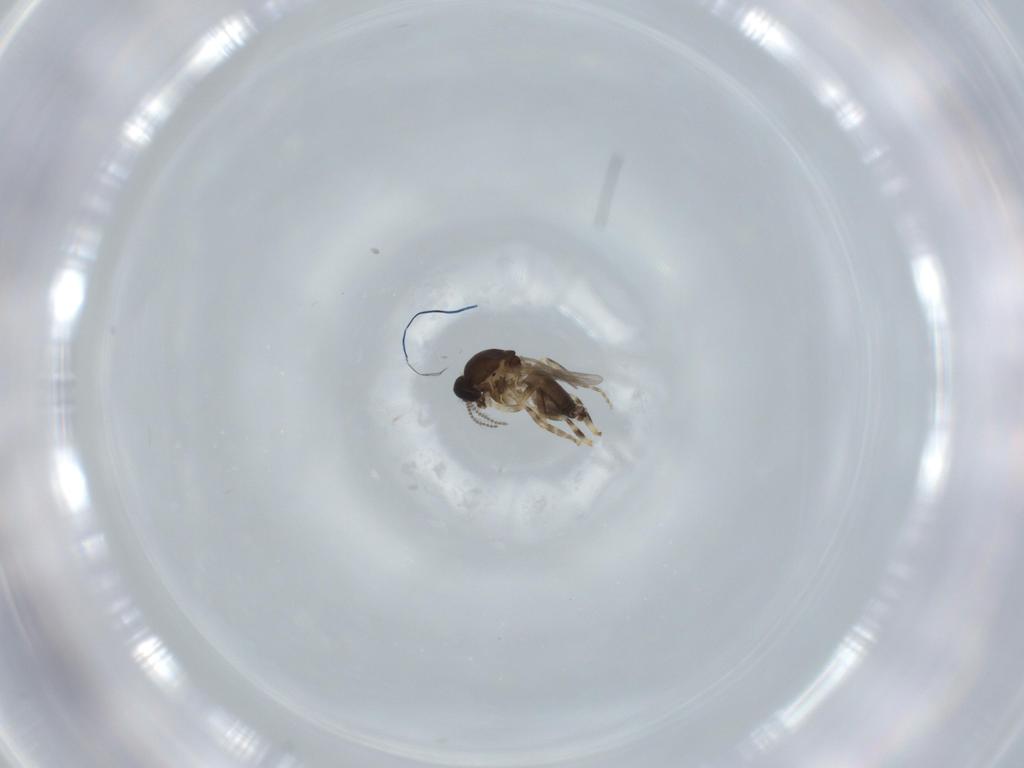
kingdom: Animalia
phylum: Arthropoda
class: Insecta
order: Diptera
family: Ceratopogonidae
